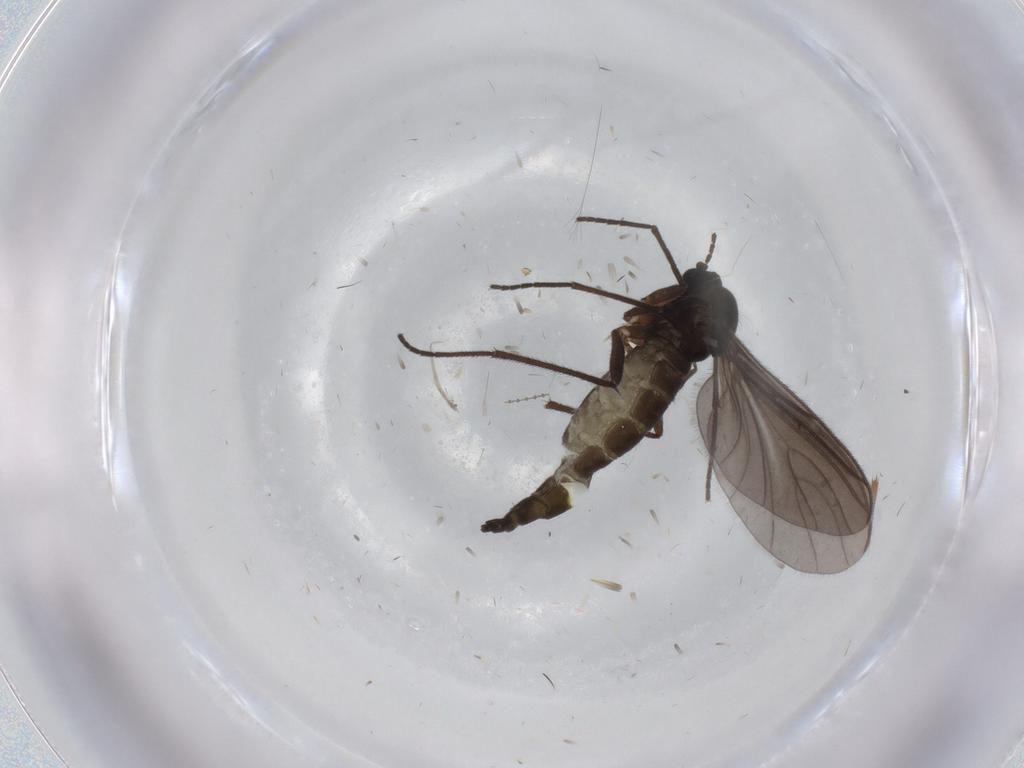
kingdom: Animalia
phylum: Arthropoda
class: Insecta
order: Diptera
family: Sciaridae
